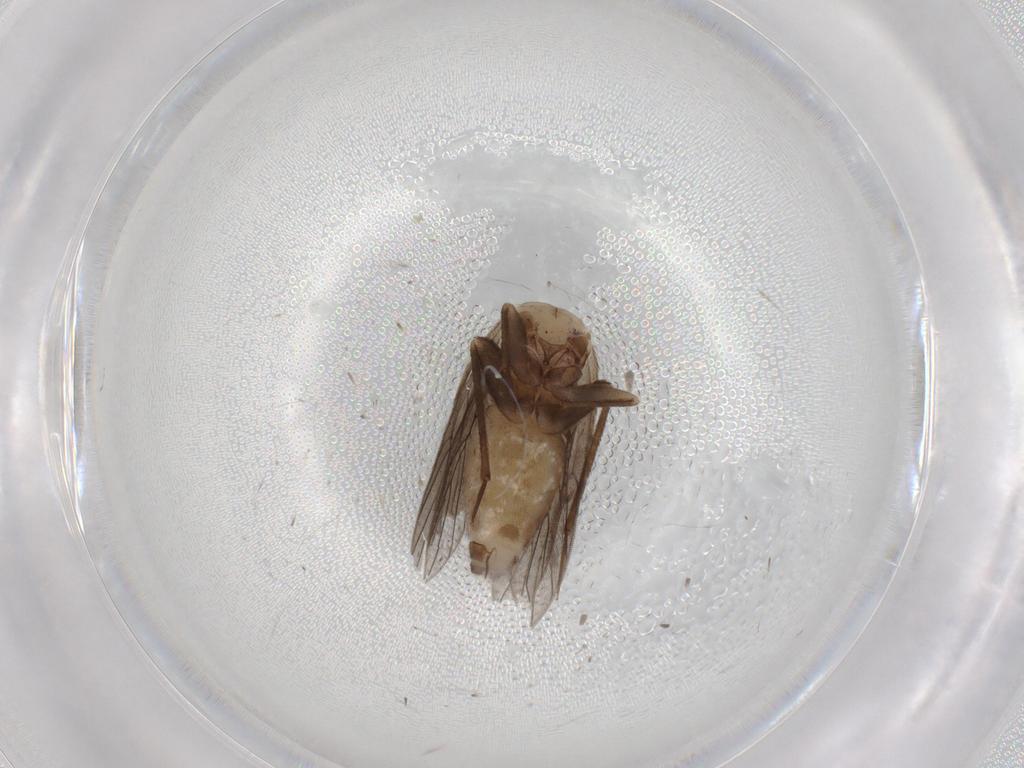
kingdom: Animalia
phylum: Arthropoda
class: Insecta
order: Psocodea
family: Lepidopsocidae
